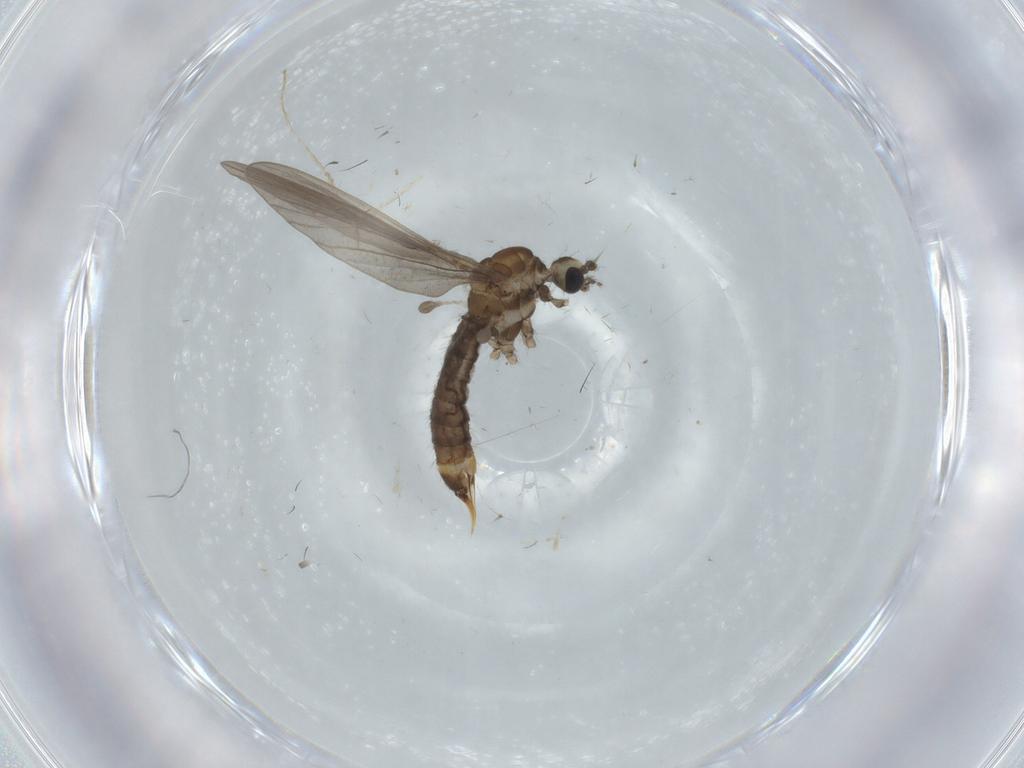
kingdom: Animalia
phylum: Arthropoda
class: Insecta
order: Diptera
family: Limoniidae
